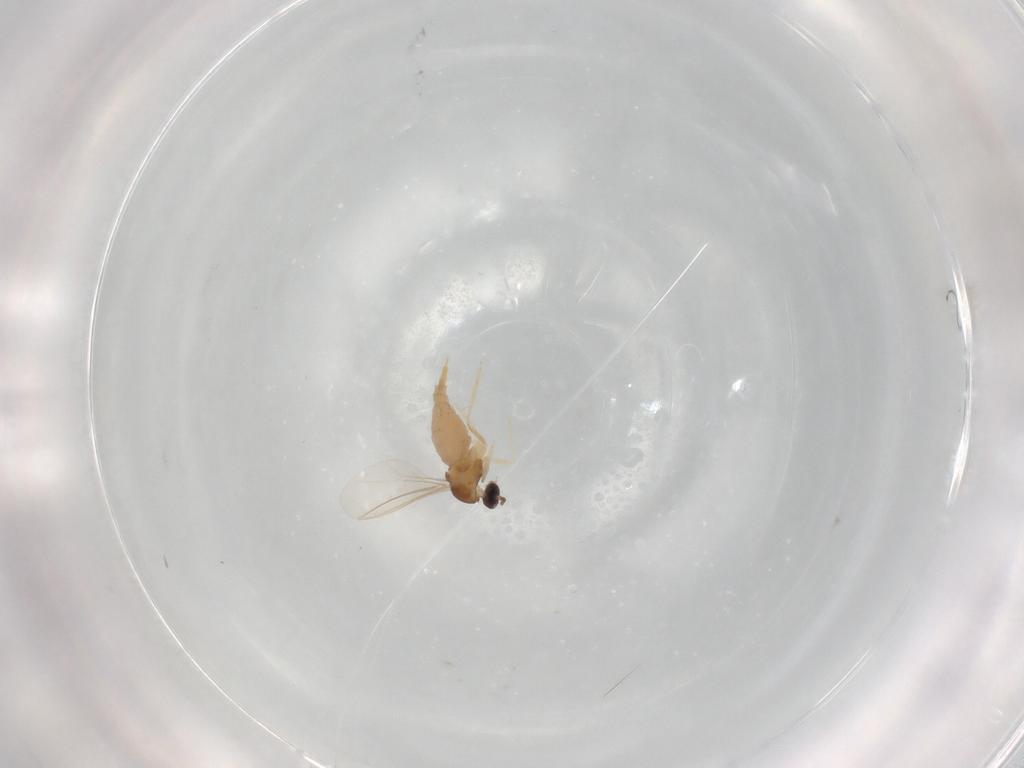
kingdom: Animalia
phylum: Arthropoda
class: Insecta
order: Diptera
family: Cecidomyiidae
